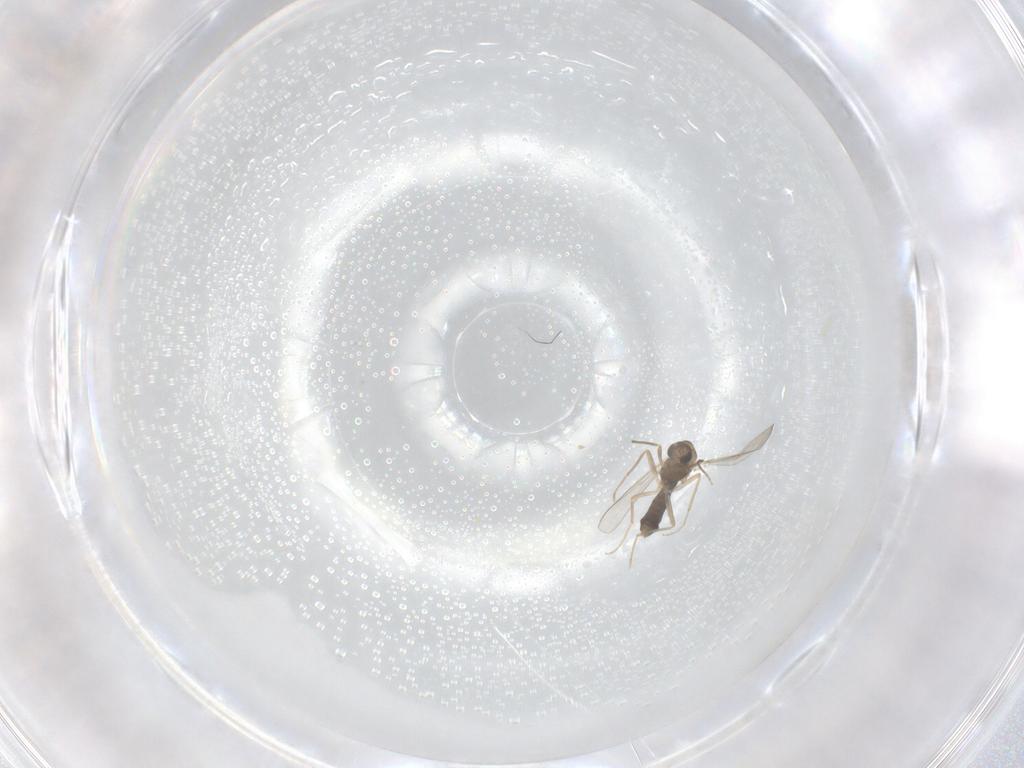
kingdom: Animalia
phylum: Arthropoda
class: Insecta
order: Diptera
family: Chironomidae
